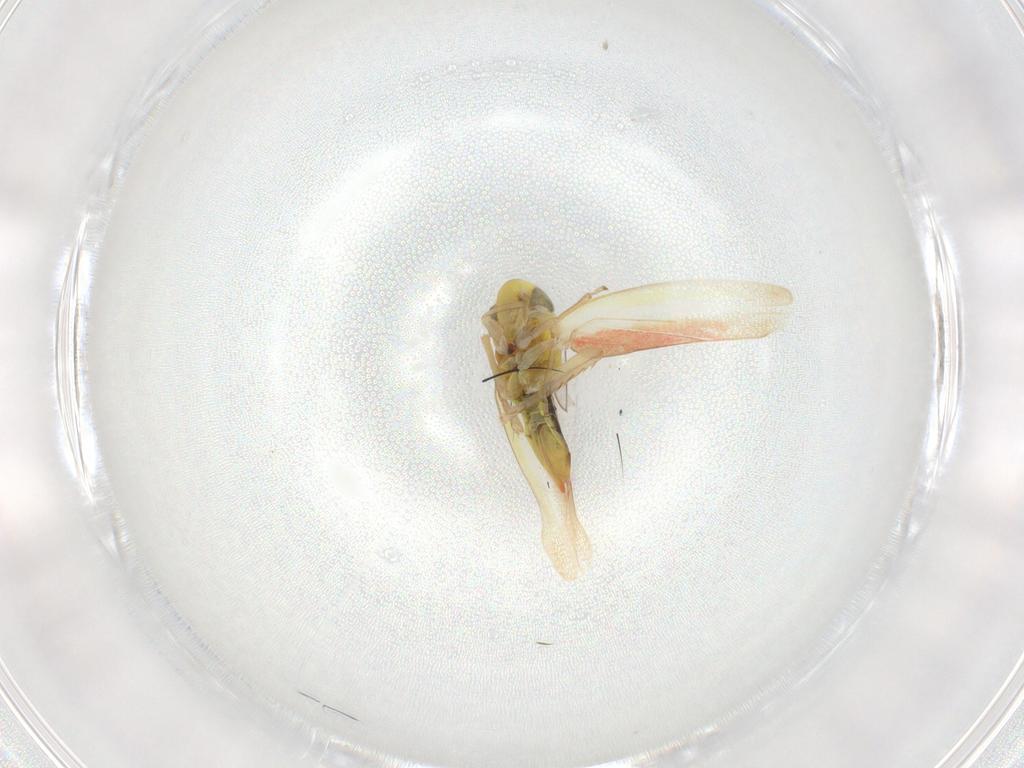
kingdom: Animalia
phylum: Arthropoda
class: Insecta
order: Hemiptera
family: Cicadellidae
